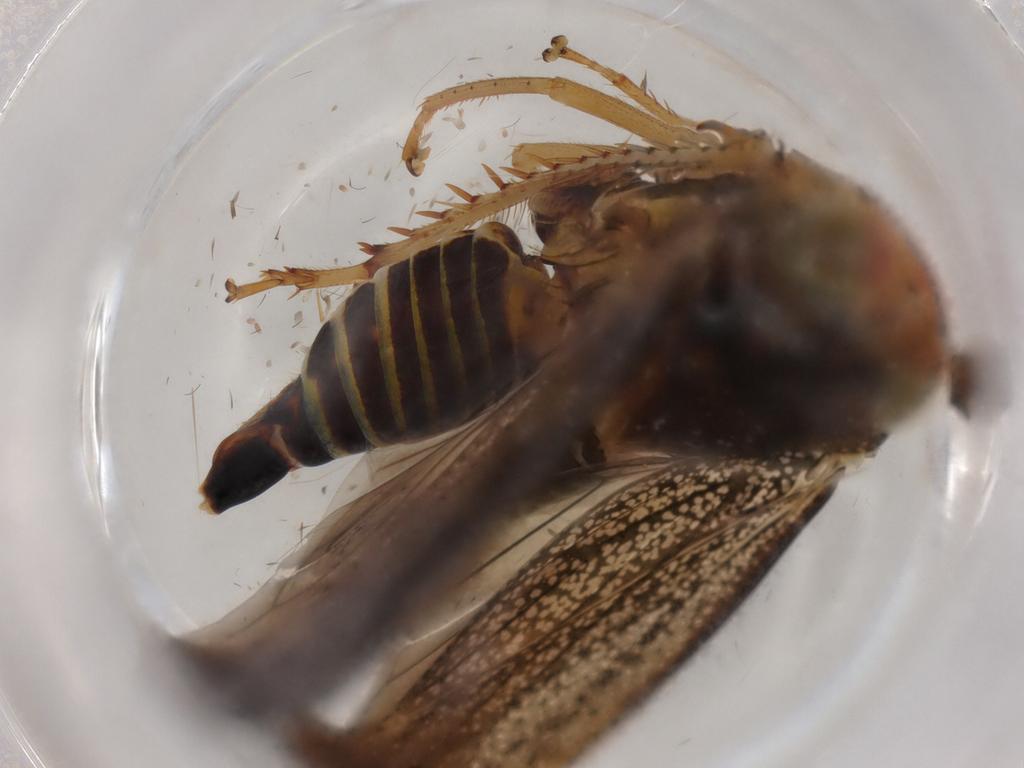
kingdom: Animalia
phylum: Arthropoda
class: Insecta
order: Hemiptera
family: Cicadellidae
